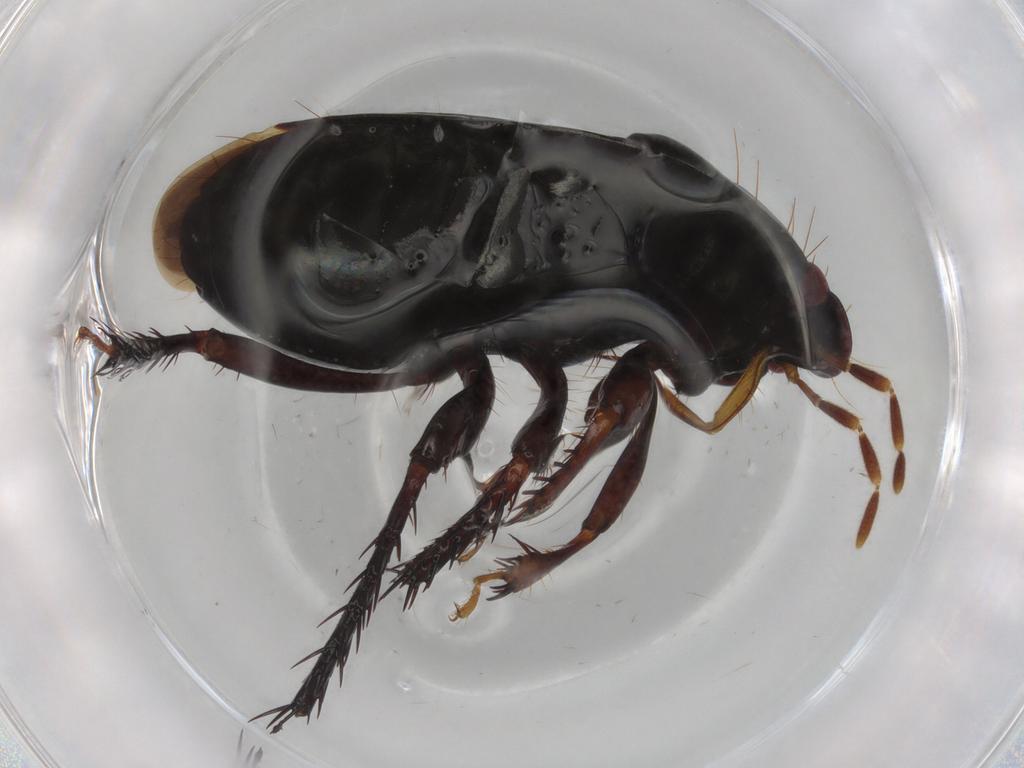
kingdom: Animalia
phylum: Arthropoda
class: Insecta
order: Hemiptera
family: Cydnidae
